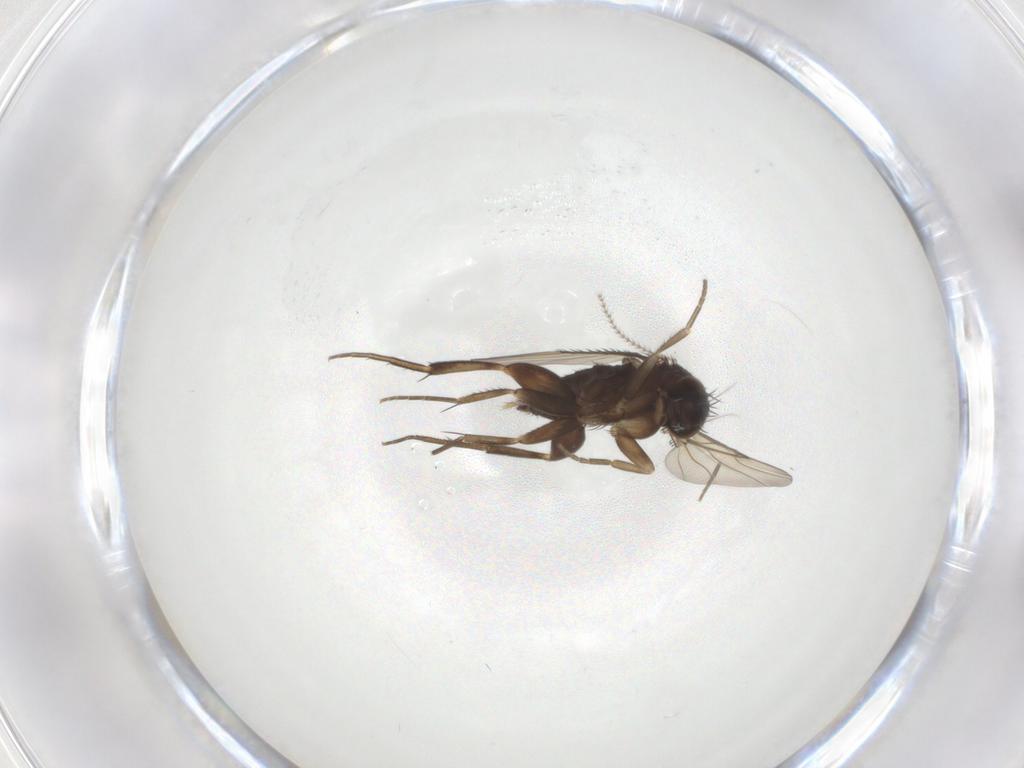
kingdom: Animalia
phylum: Arthropoda
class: Insecta
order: Diptera
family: Phoridae
